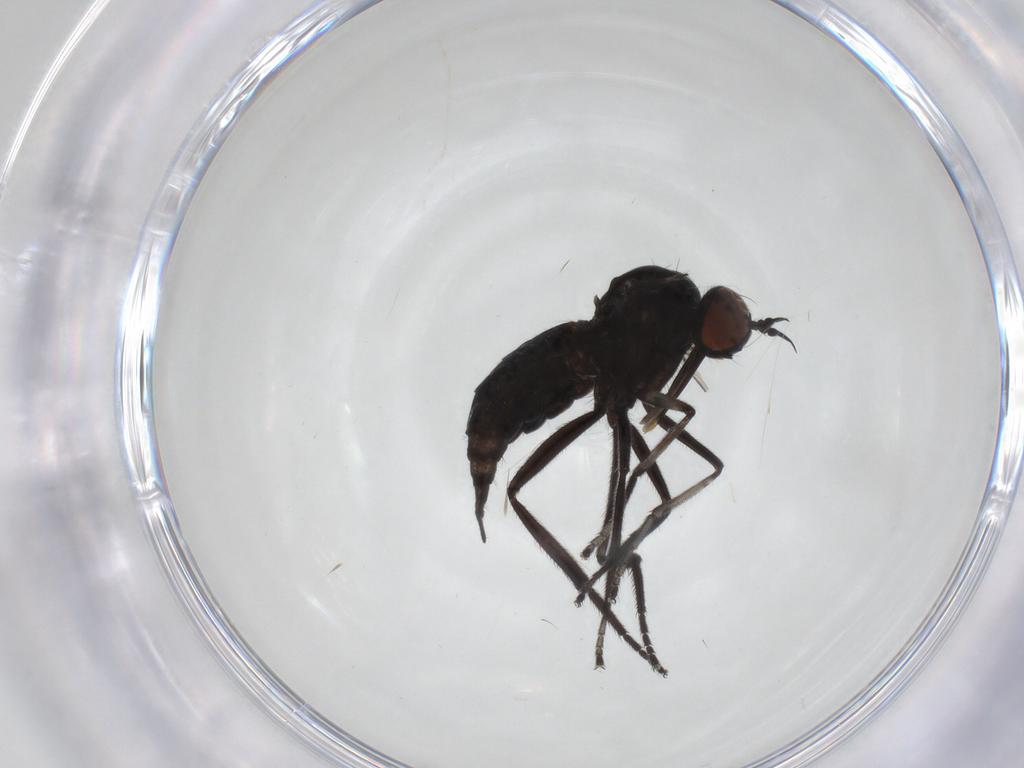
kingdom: Animalia
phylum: Arthropoda
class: Insecta
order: Diptera
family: Empididae
